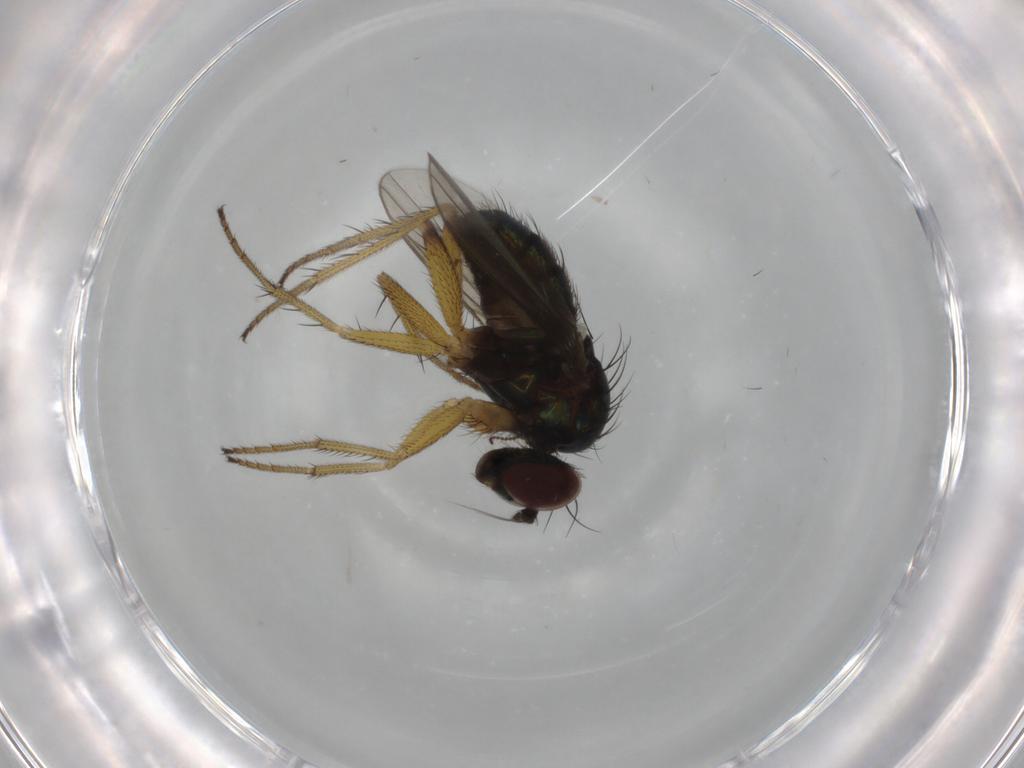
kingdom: Animalia
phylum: Arthropoda
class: Insecta
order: Diptera
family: Dolichopodidae
